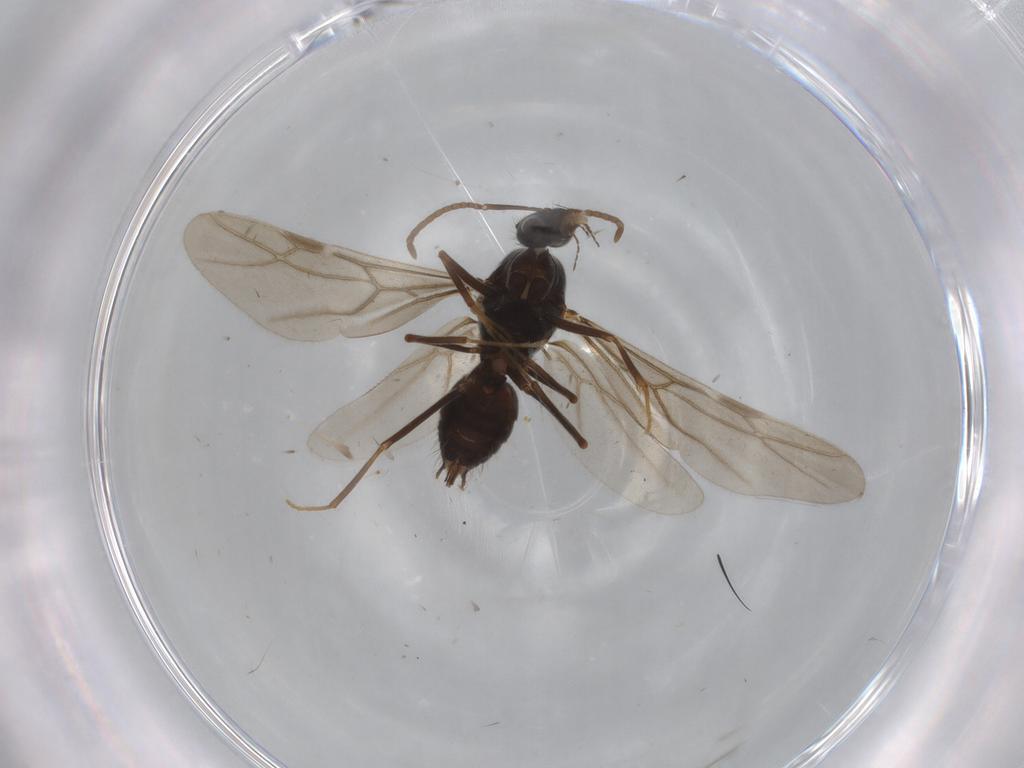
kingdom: Animalia
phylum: Arthropoda
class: Insecta
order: Hymenoptera
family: Formicidae
